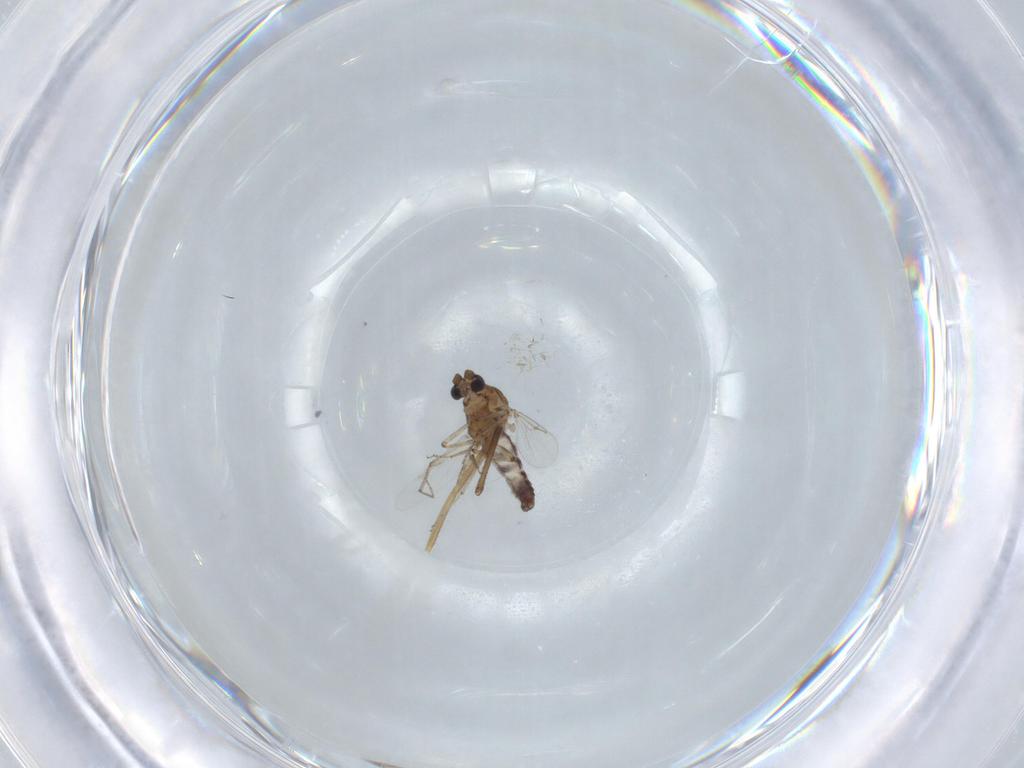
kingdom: Animalia
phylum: Arthropoda
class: Insecta
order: Diptera
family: Ceratopogonidae
